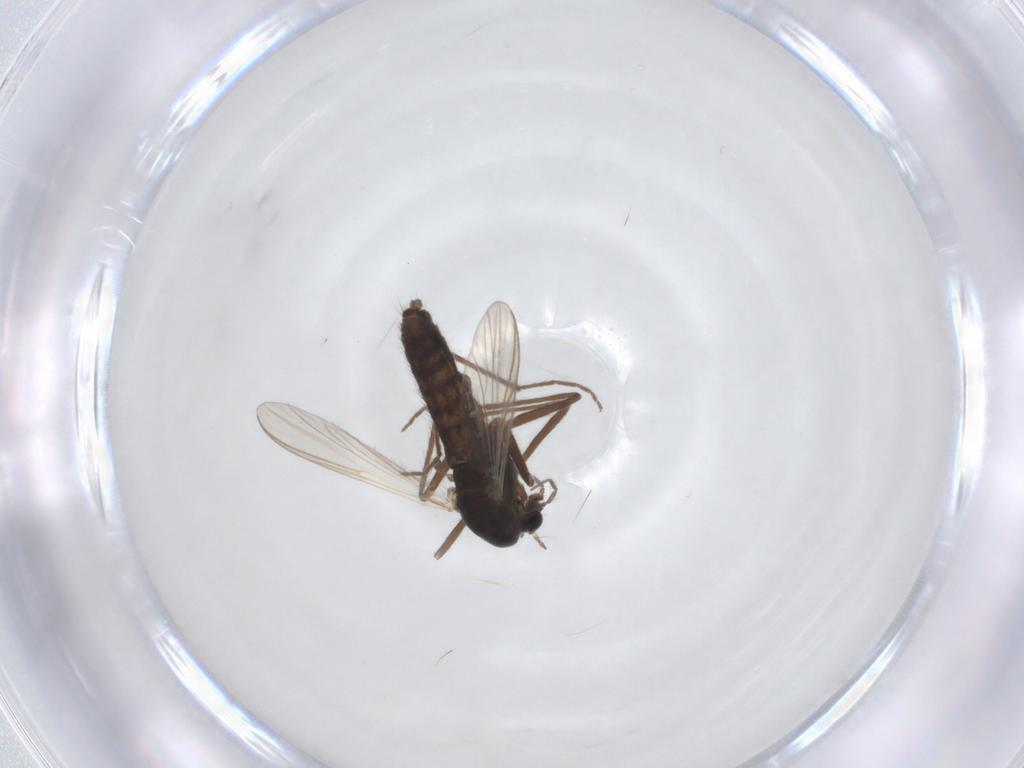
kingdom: Animalia
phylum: Arthropoda
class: Insecta
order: Diptera
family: Chironomidae
